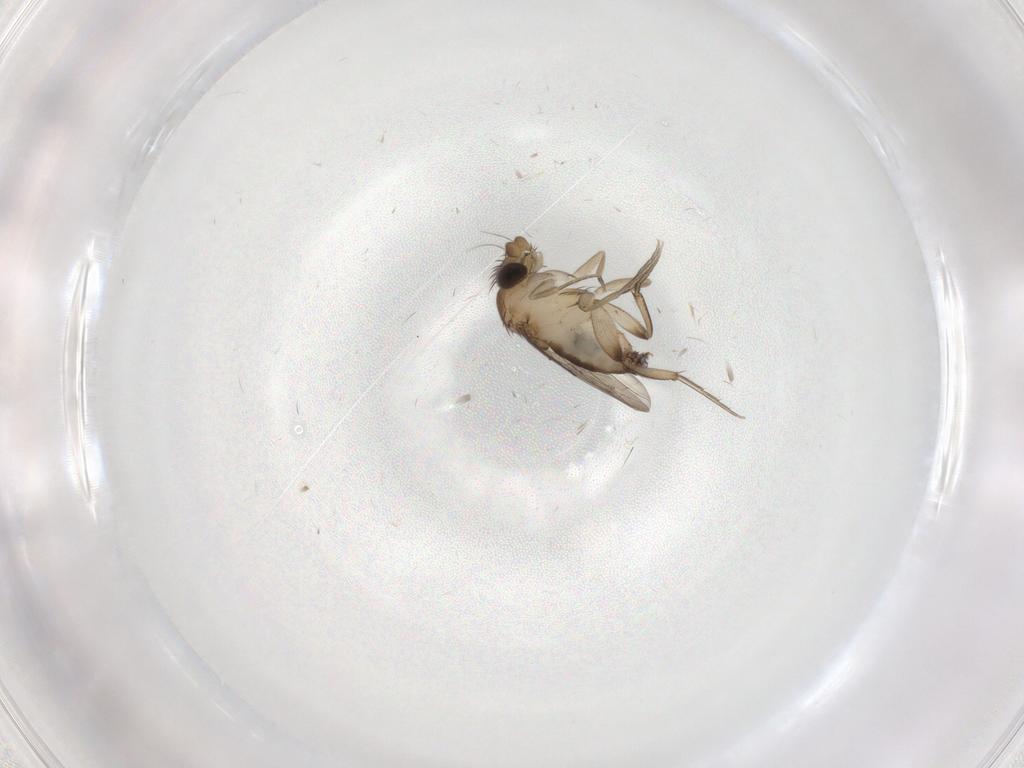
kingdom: Animalia
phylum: Arthropoda
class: Insecta
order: Diptera
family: Phoridae
